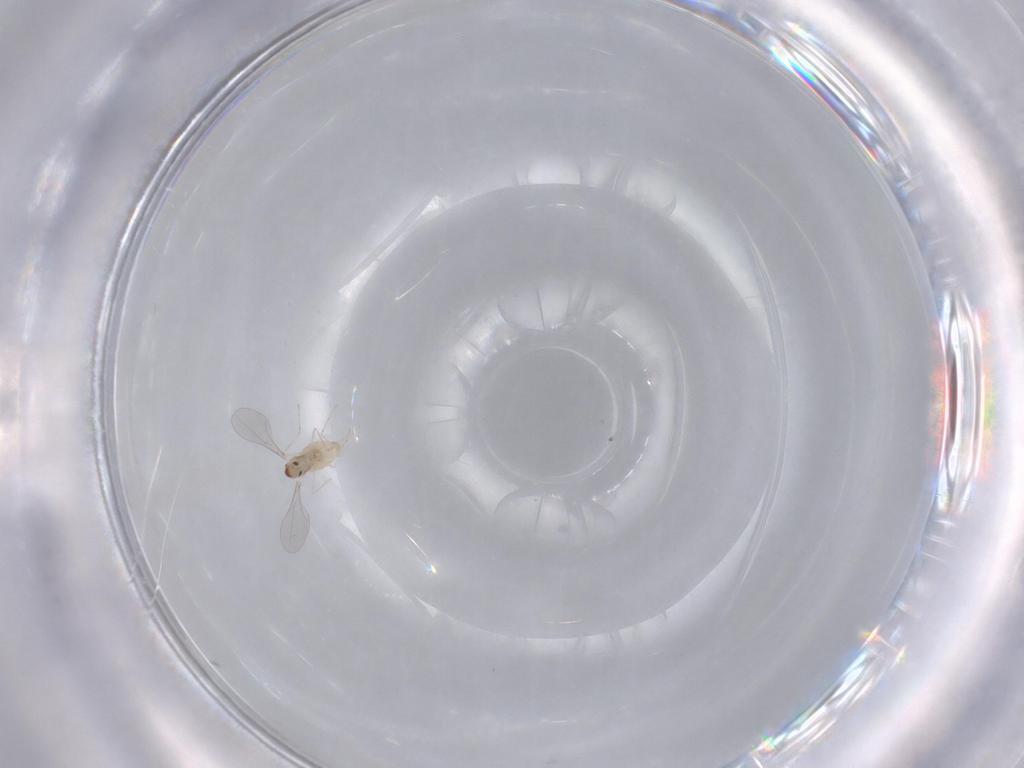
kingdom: Animalia
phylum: Arthropoda
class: Insecta
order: Diptera
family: Cecidomyiidae
